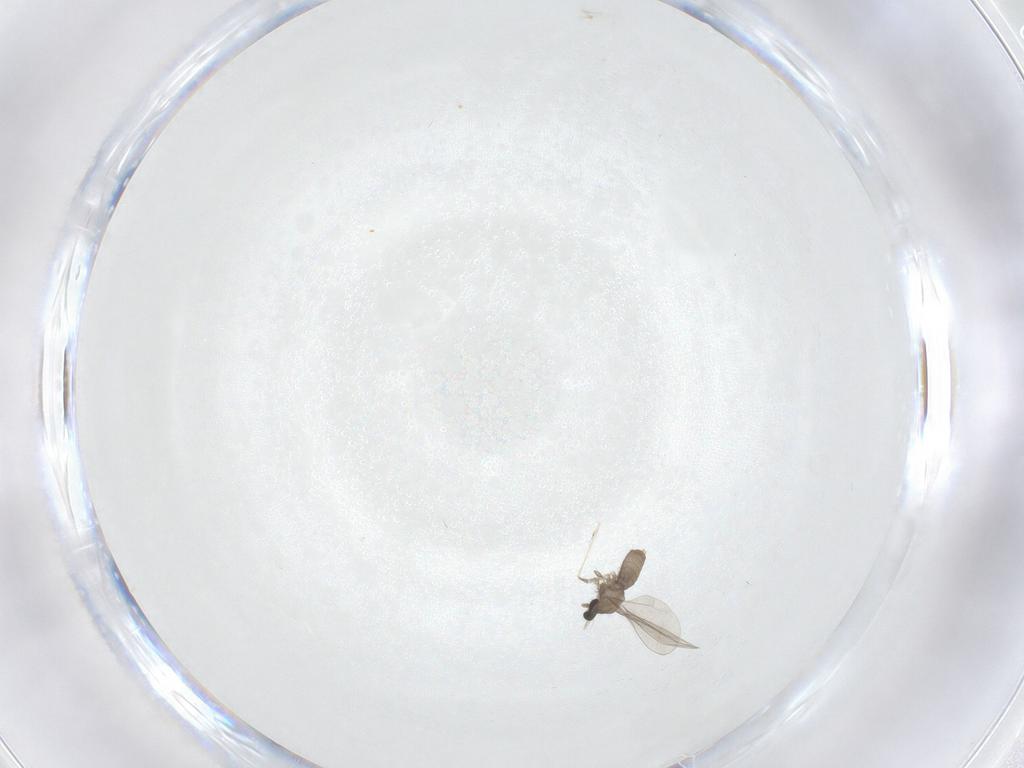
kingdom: Animalia
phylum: Arthropoda
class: Insecta
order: Diptera
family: Cecidomyiidae
